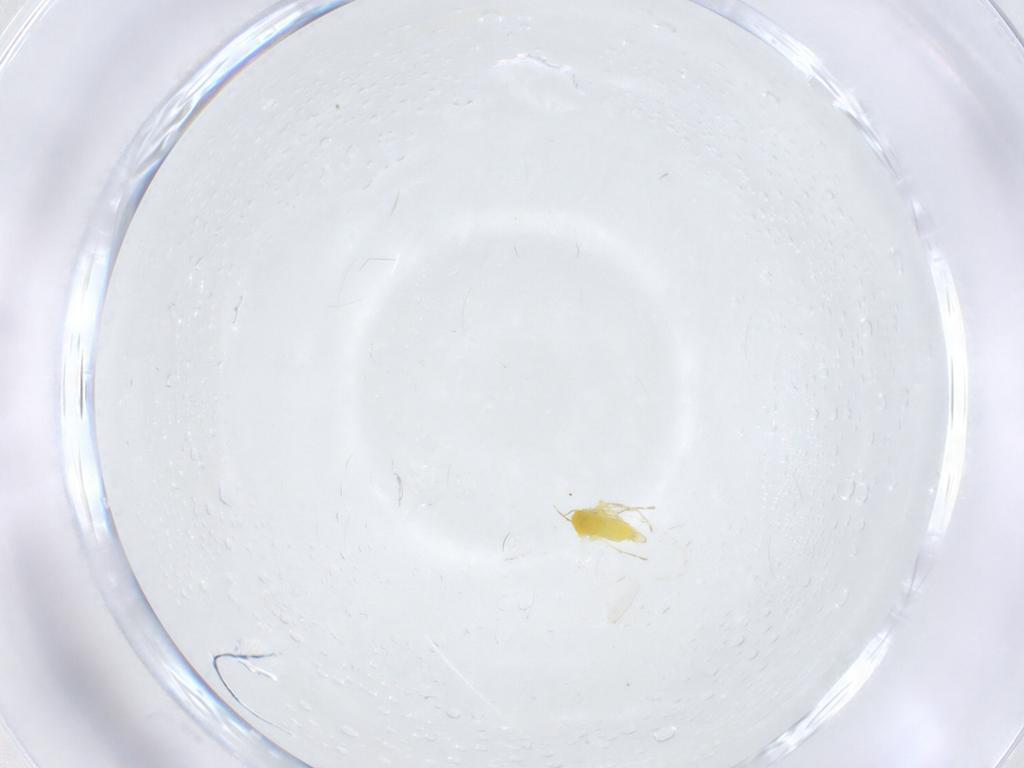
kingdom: Animalia
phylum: Arthropoda
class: Insecta
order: Hemiptera
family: Aleyrodidae
